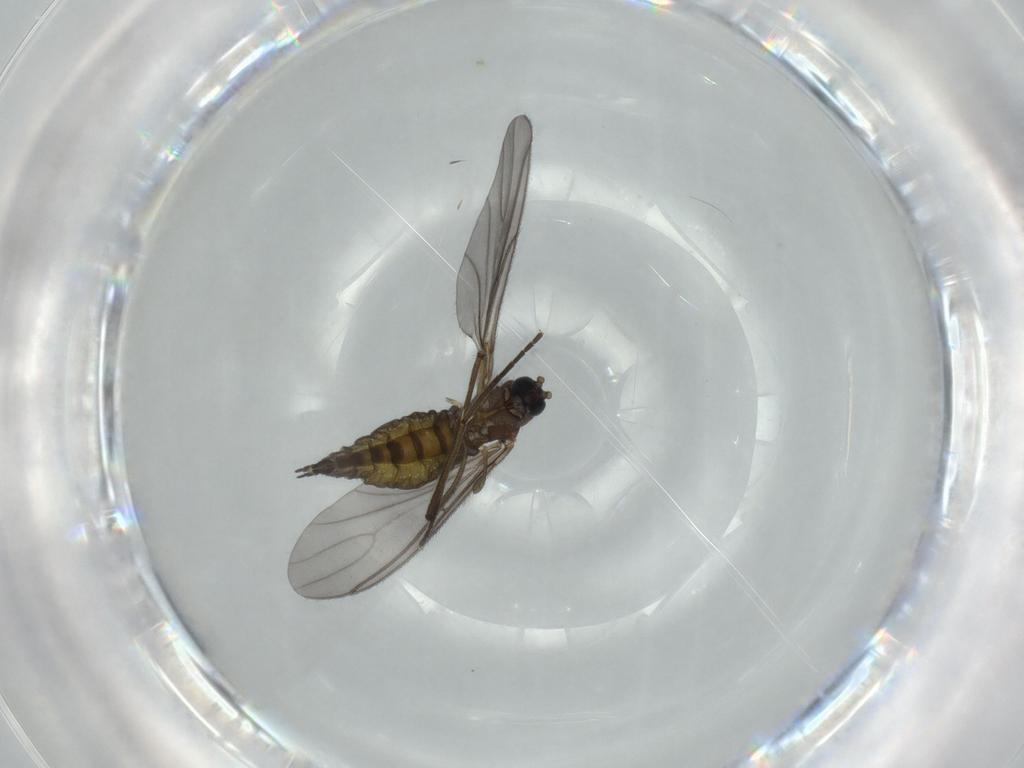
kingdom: Animalia
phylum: Arthropoda
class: Insecta
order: Diptera
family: Sciaridae
